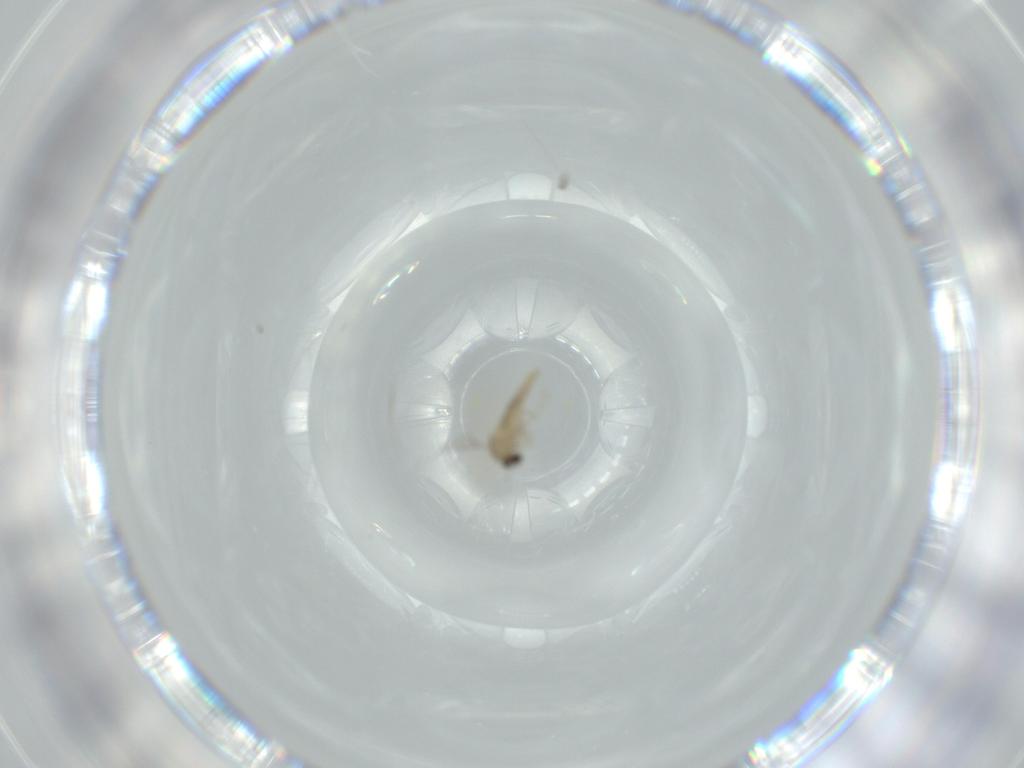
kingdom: Animalia
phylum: Arthropoda
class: Insecta
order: Diptera
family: Cecidomyiidae
